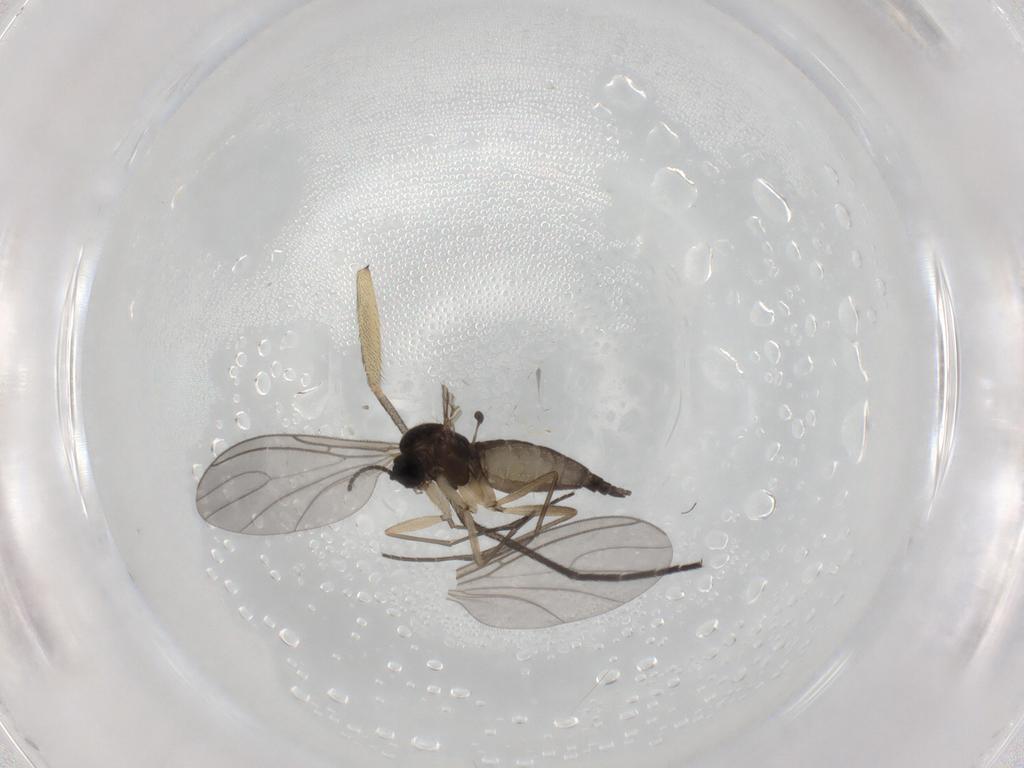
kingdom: Animalia
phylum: Arthropoda
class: Insecta
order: Diptera
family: Sciaridae
